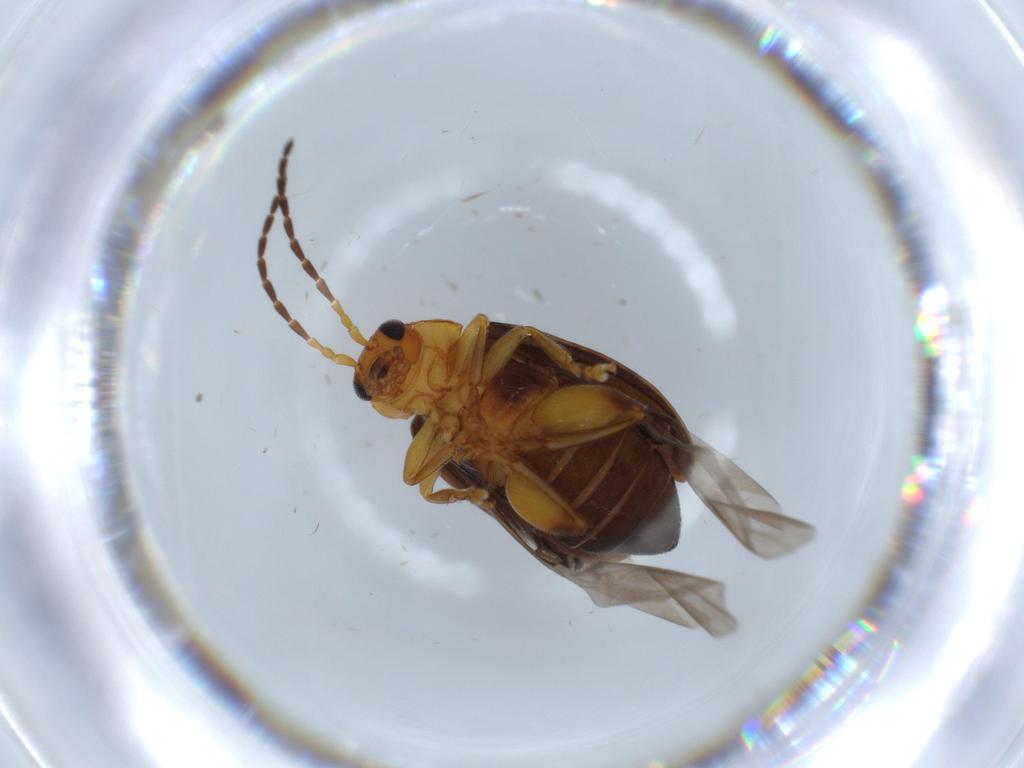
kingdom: Animalia
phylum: Arthropoda
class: Insecta
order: Coleoptera
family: Chrysomelidae
